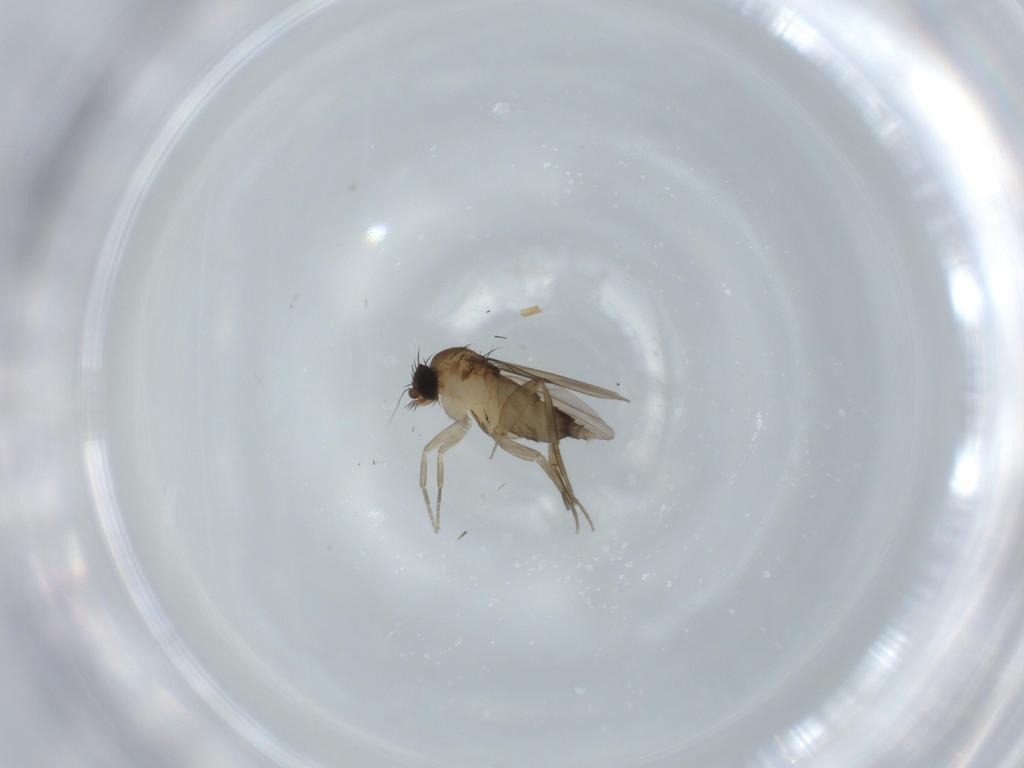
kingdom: Animalia
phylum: Arthropoda
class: Insecta
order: Diptera
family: Phoridae
